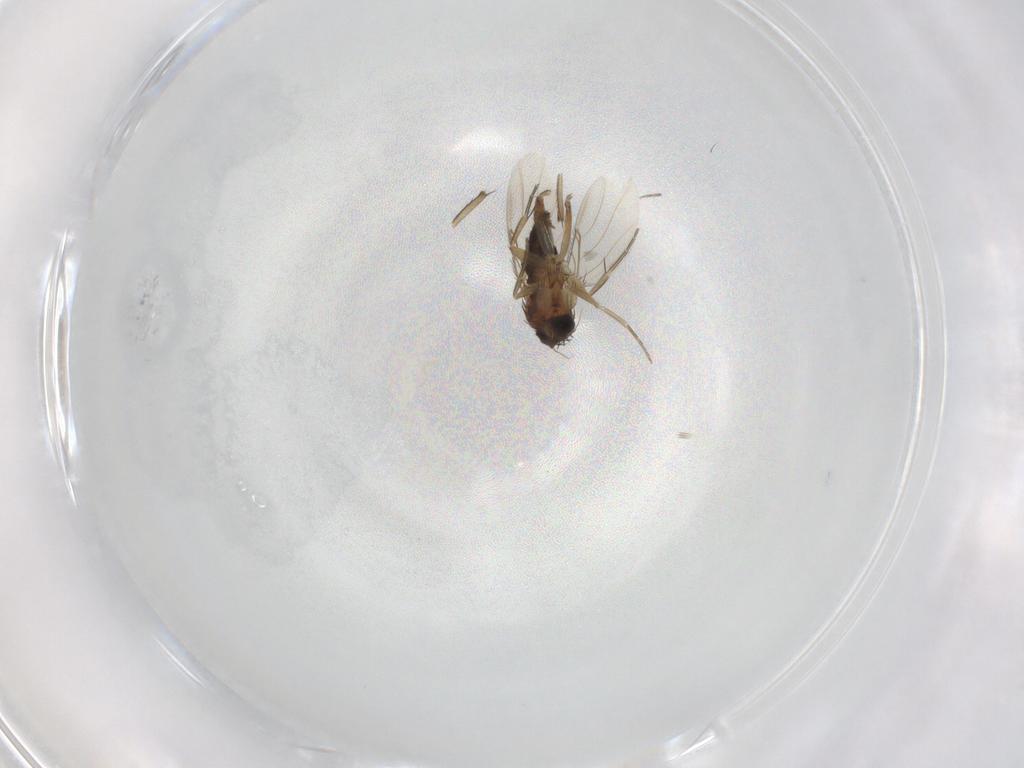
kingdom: Animalia
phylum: Arthropoda
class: Insecta
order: Diptera
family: Phoridae
